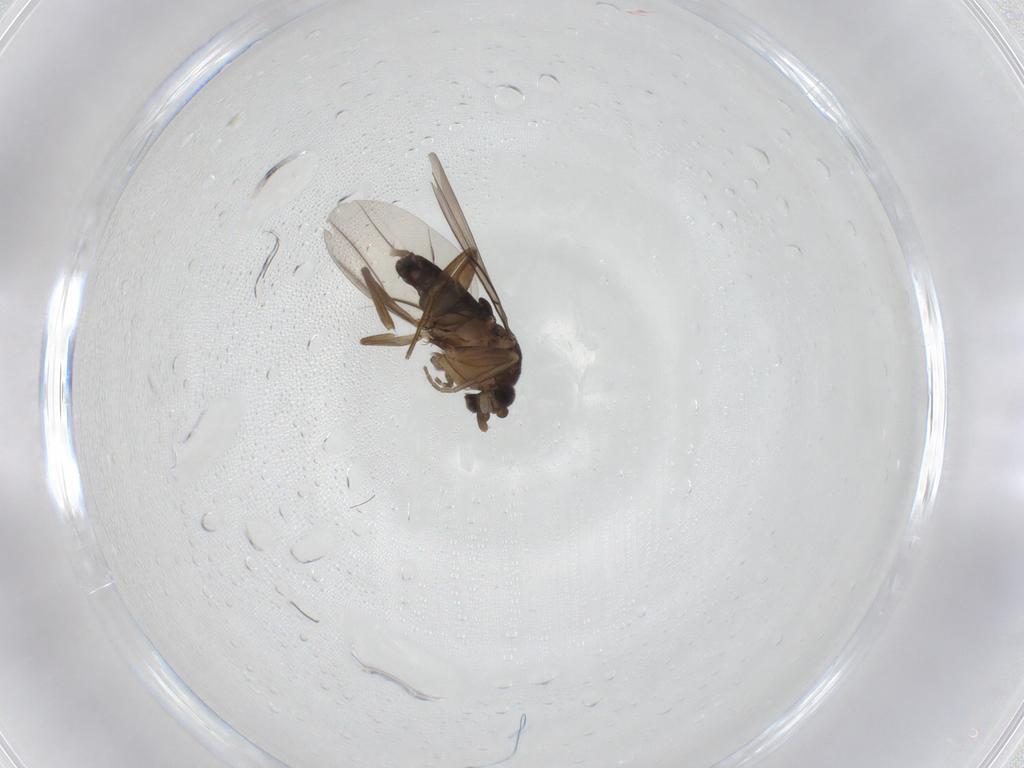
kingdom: Animalia
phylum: Arthropoda
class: Insecta
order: Diptera
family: Phoridae
